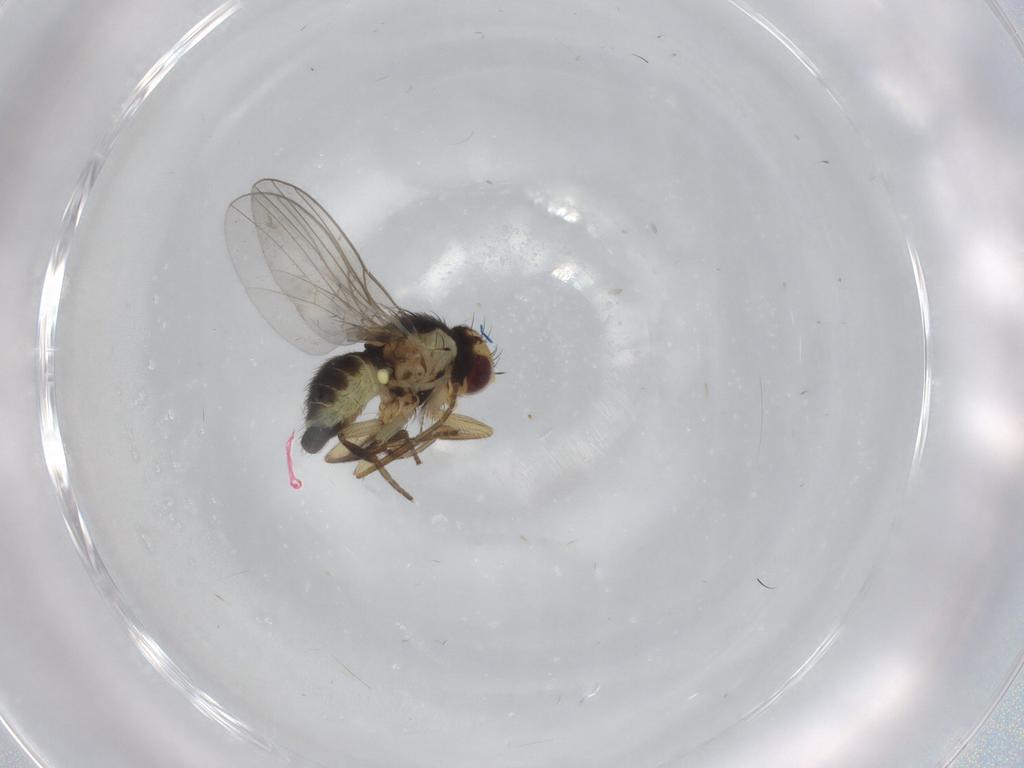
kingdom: Animalia
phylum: Arthropoda
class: Insecta
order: Diptera
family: Agromyzidae
